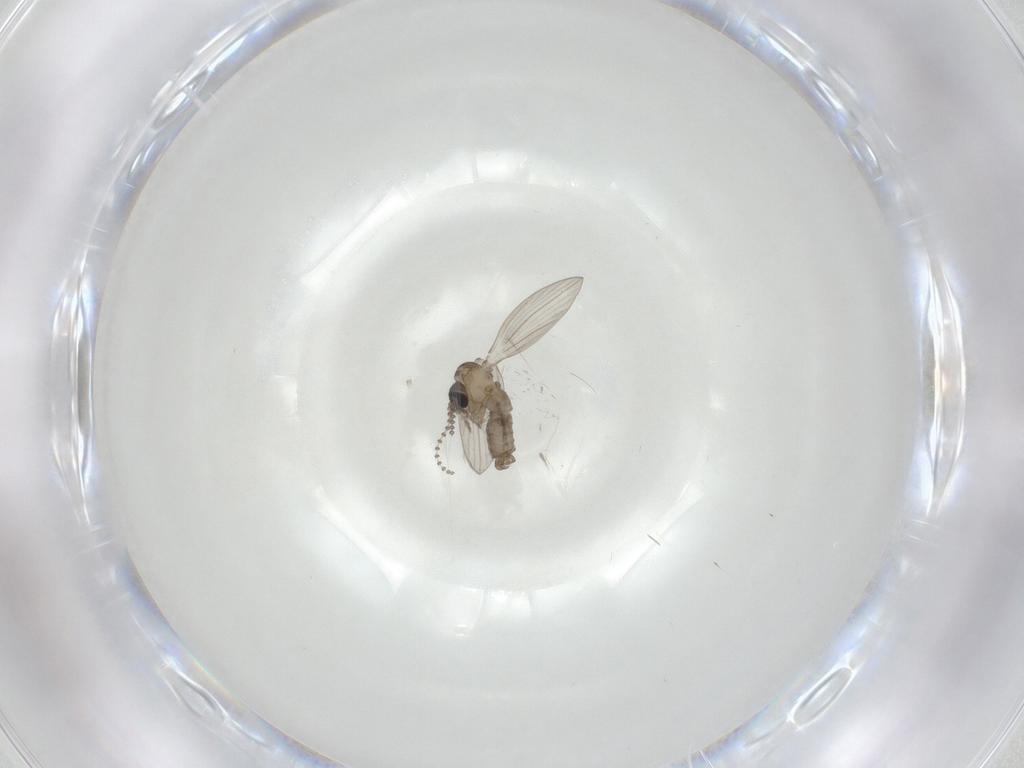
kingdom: Animalia
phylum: Arthropoda
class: Insecta
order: Diptera
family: Psychodidae
